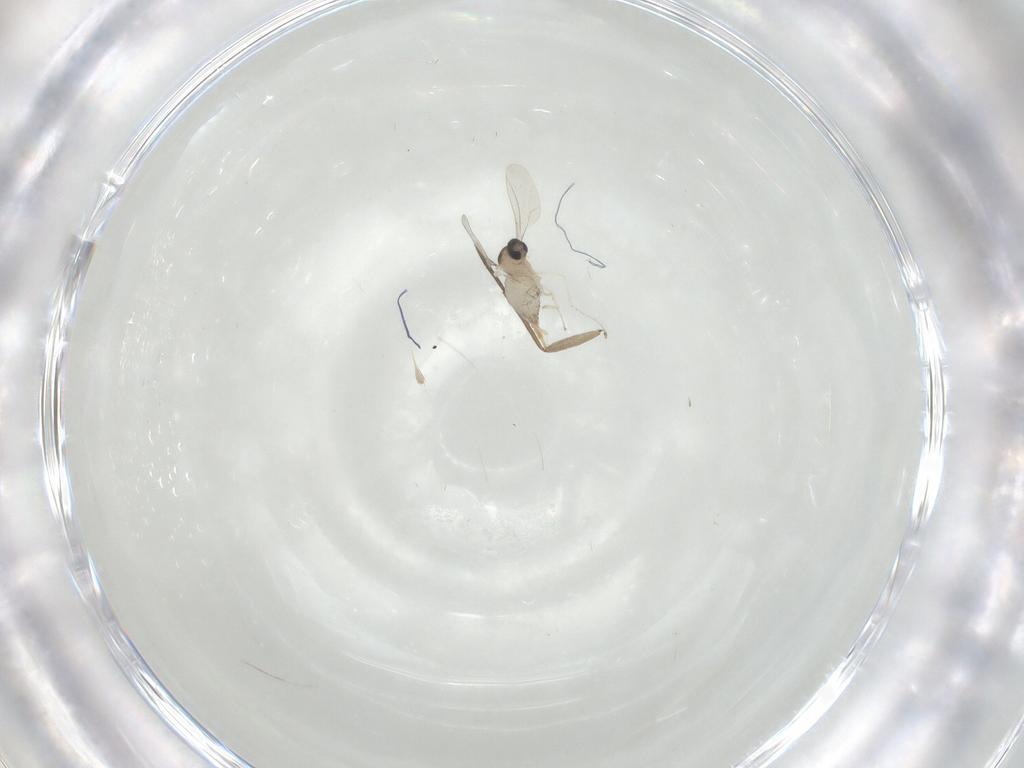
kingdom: Animalia
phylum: Arthropoda
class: Insecta
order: Diptera
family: Cecidomyiidae
